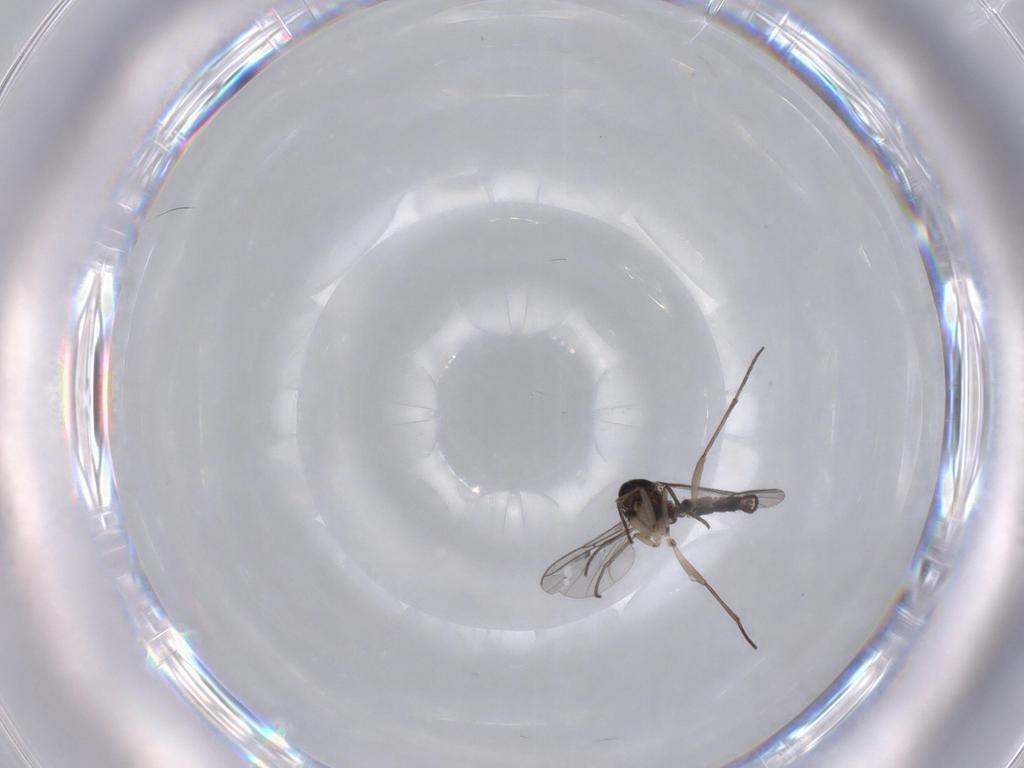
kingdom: Animalia
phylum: Arthropoda
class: Insecta
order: Diptera
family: Sciaridae
